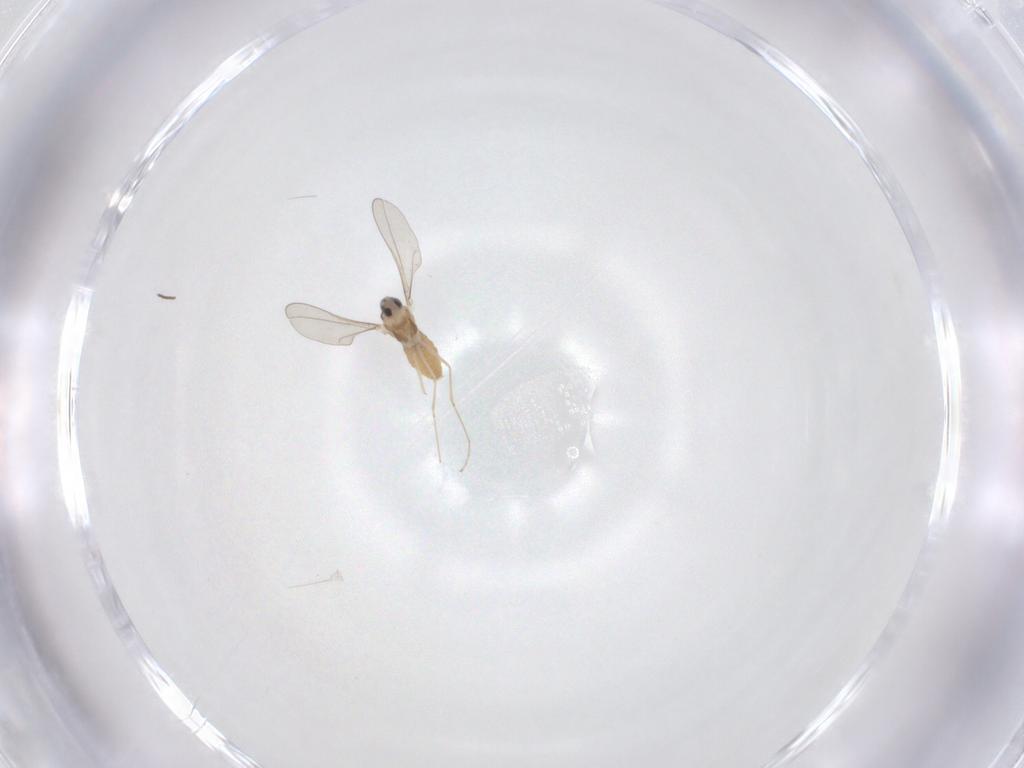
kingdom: Animalia
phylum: Arthropoda
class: Insecta
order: Diptera
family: Cecidomyiidae
